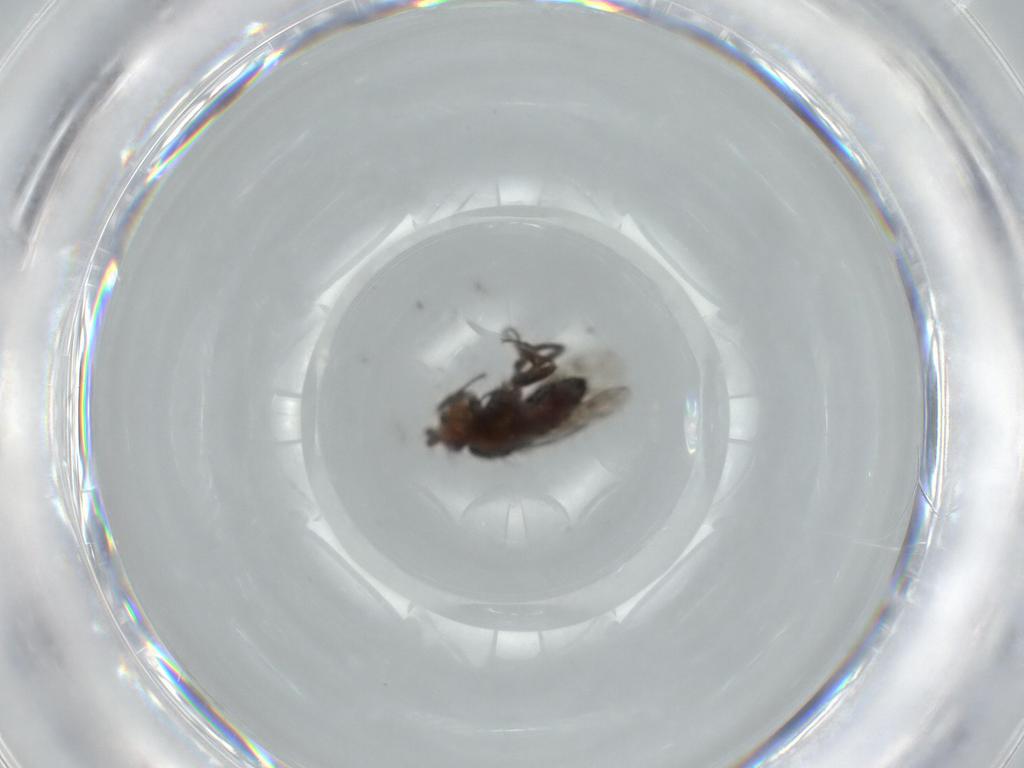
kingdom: Animalia
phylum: Arthropoda
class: Insecta
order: Diptera
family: Sphaeroceridae
